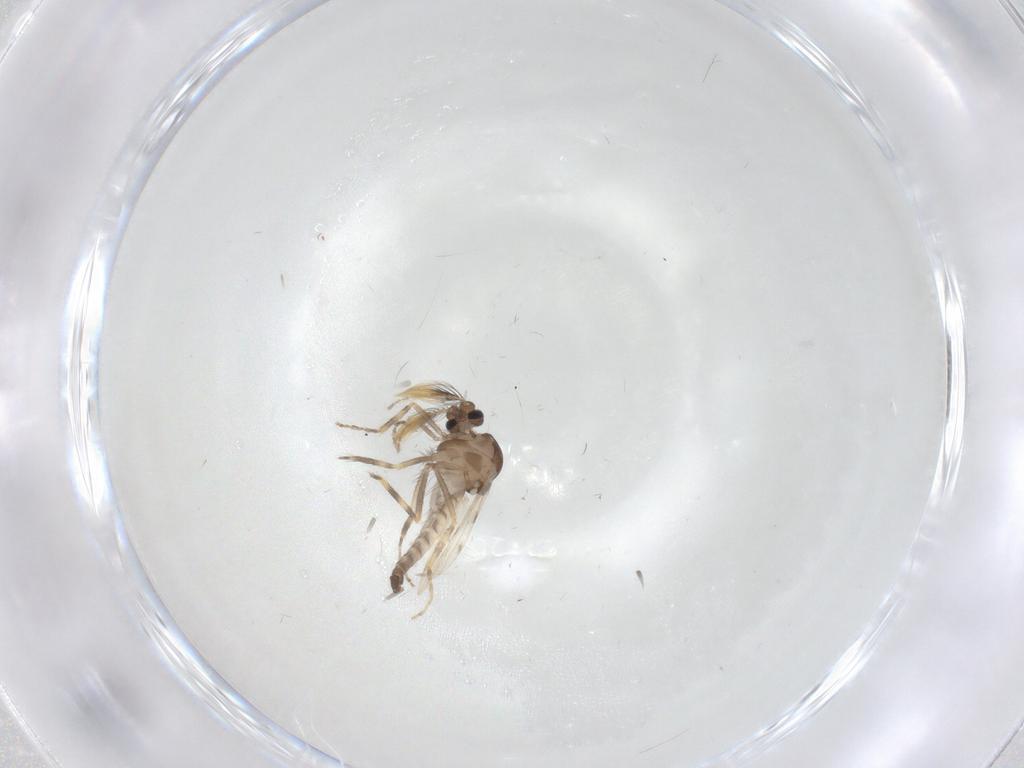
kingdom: Animalia
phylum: Arthropoda
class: Insecta
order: Diptera
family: Ceratopogonidae
